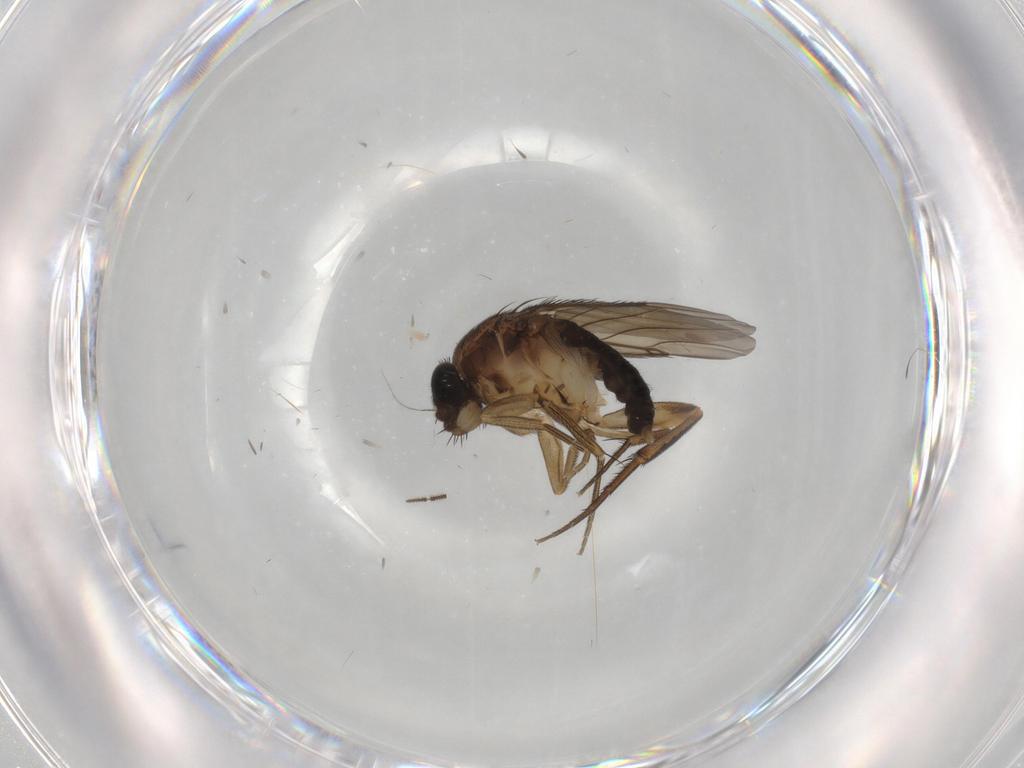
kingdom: Animalia
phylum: Arthropoda
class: Insecta
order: Diptera
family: Phoridae
